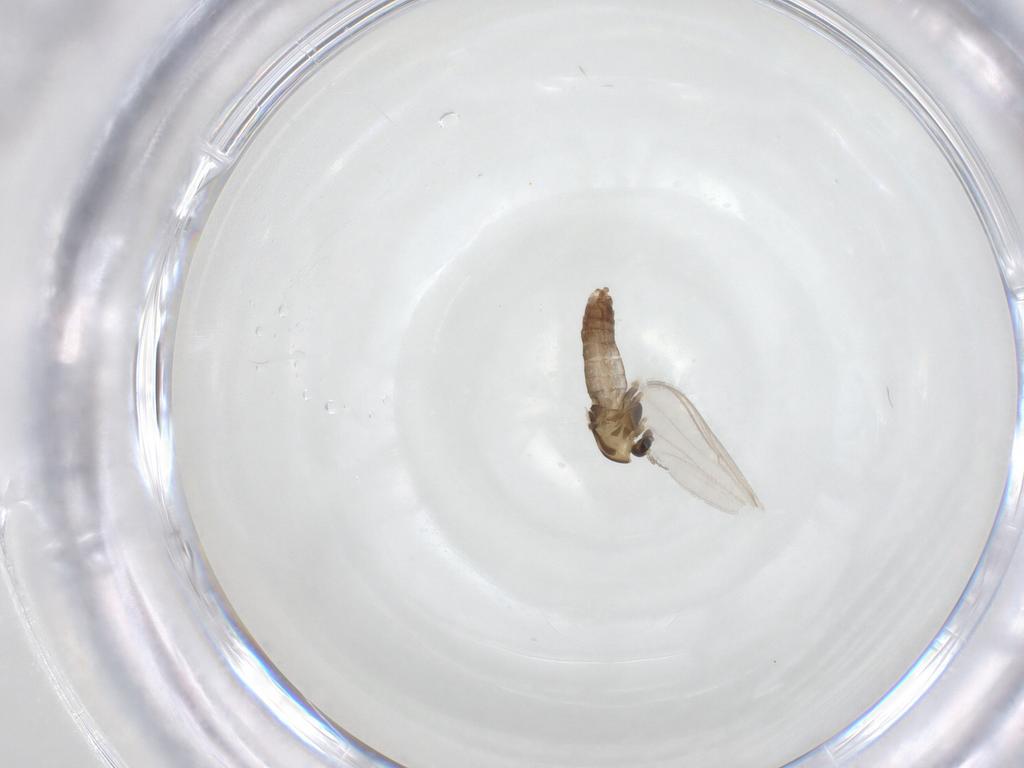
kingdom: Animalia
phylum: Arthropoda
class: Insecta
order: Diptera
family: Chironomidae
